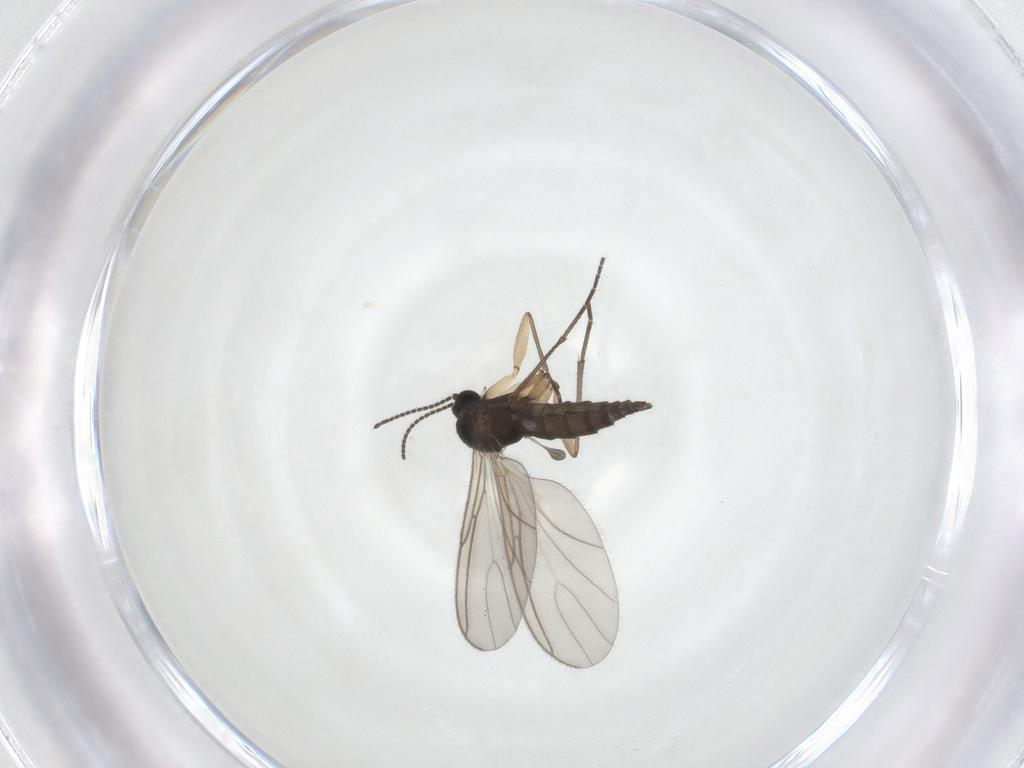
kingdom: Animalia
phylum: Arthropoda
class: Insecta
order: Diptera
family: Sciaridae
